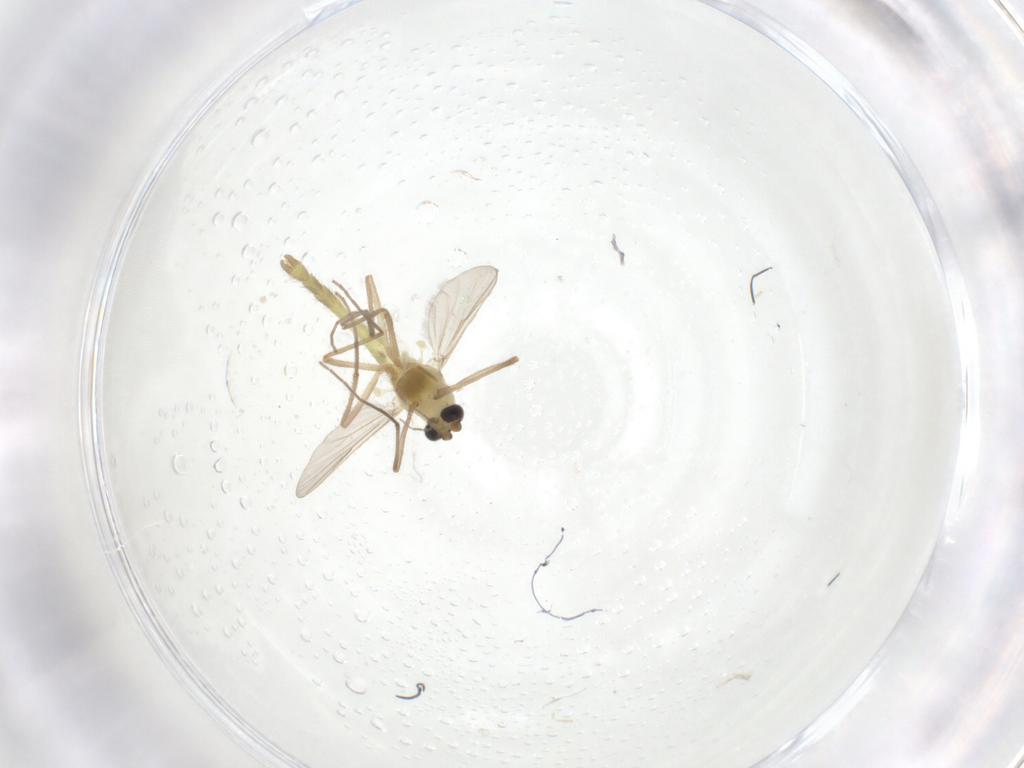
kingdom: Animalia
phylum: Arthropoda
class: Insecta
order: Diptera
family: Chironomidae
